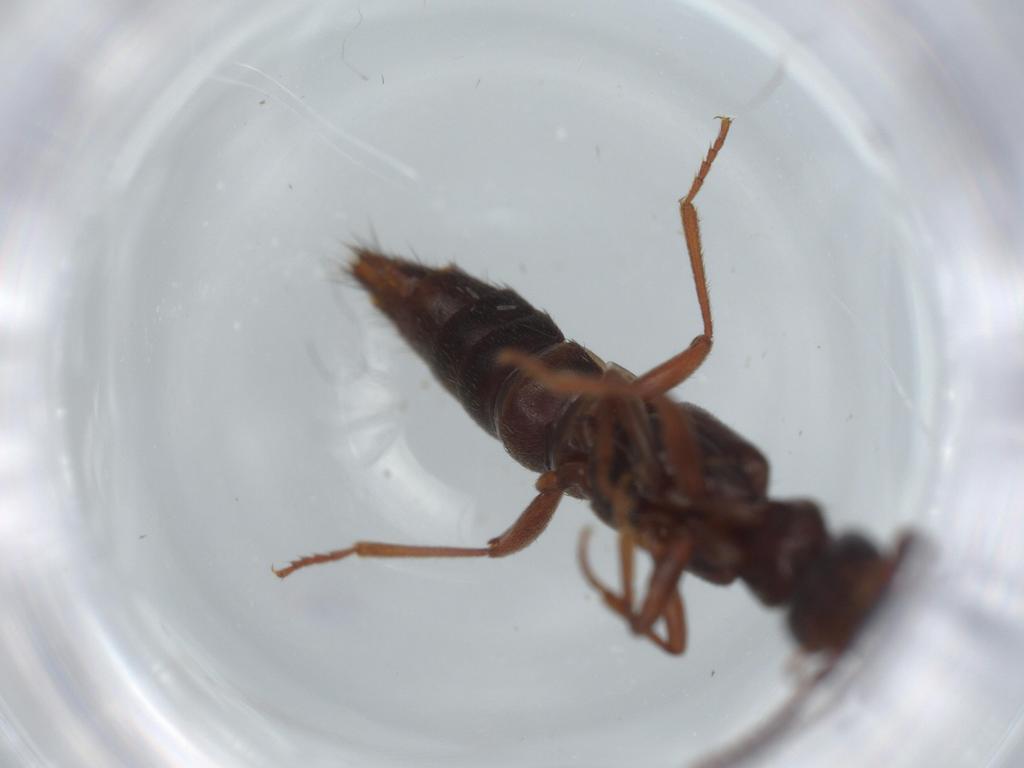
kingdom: Animalia
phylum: Arthropoda
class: Insecta
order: Coleoptera
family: Staphylinidae
